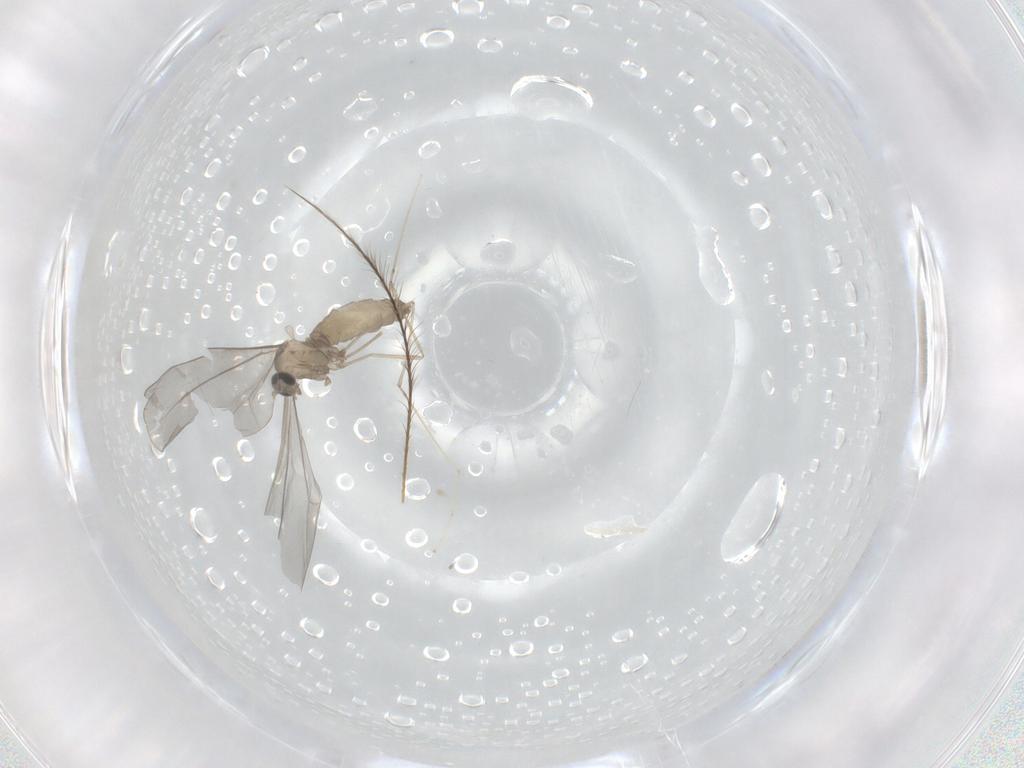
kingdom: Animalia
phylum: Arthropoda
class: Insecta
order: Diptera
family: Cecidomyiidae
